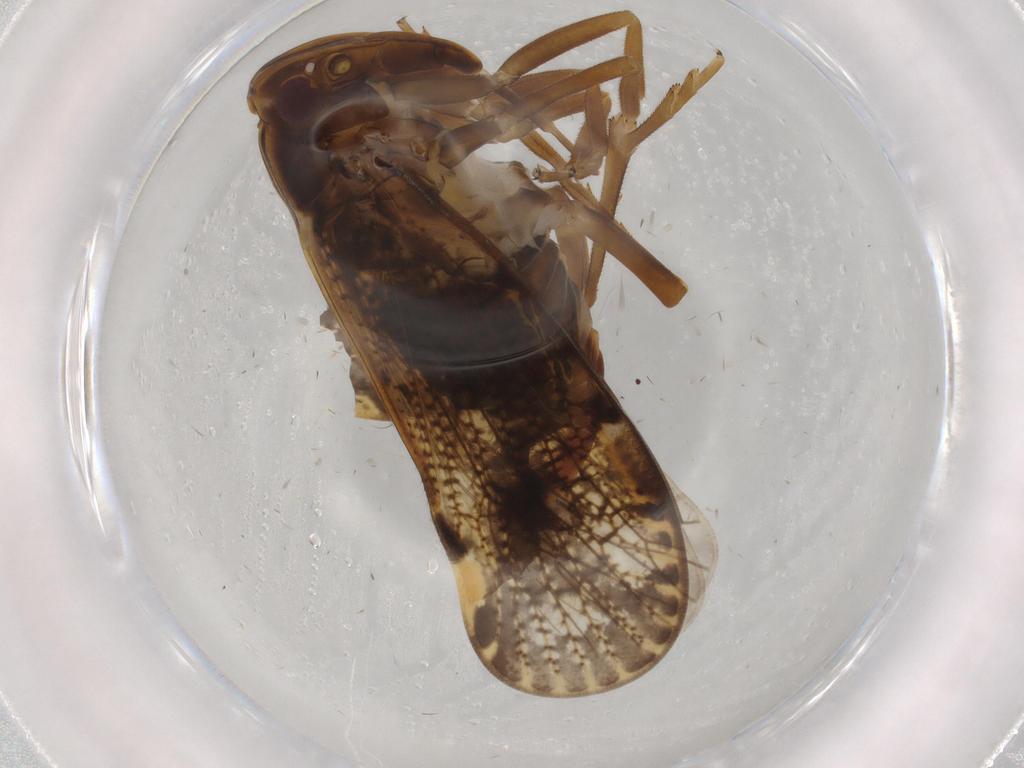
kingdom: Animalia
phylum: Arthropoda
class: Insecta
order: Hemiptera
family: Cixiidae
